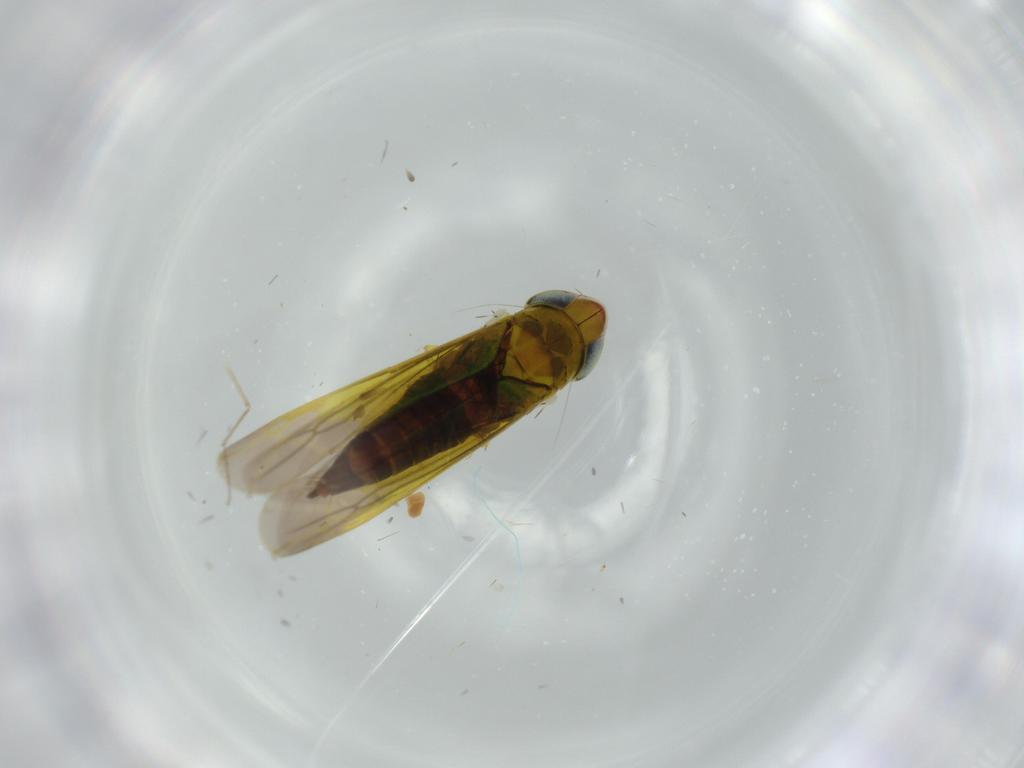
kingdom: Animalia
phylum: Arthropoda
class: Insecta
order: Hemiptera
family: Cicadellidae
